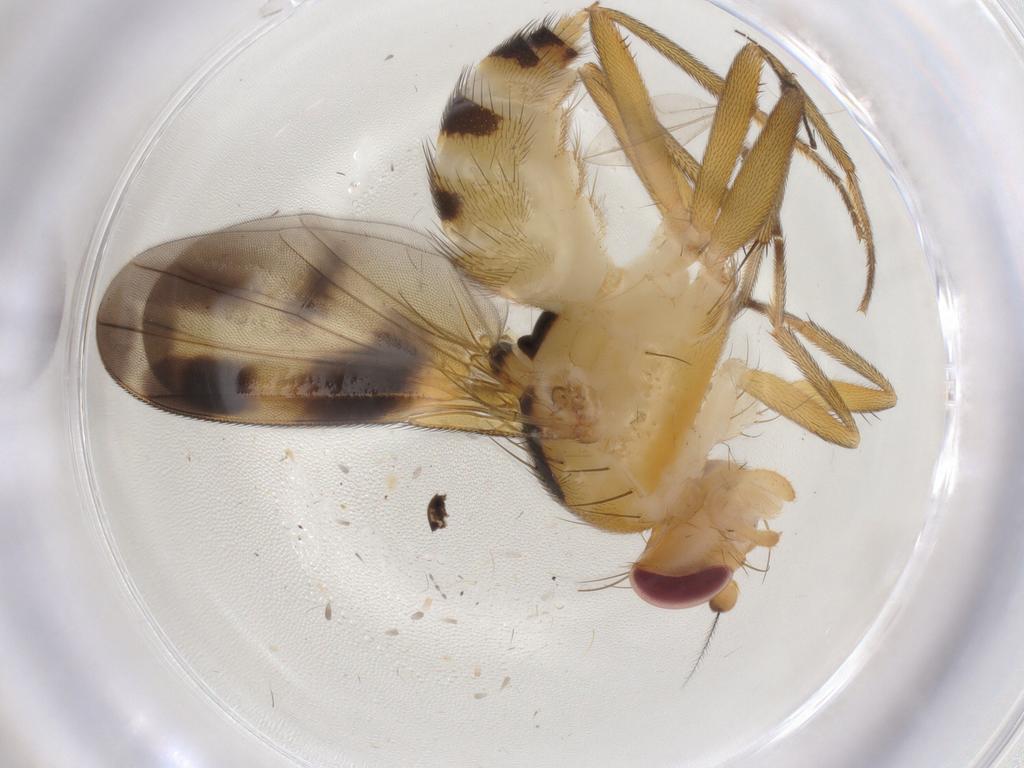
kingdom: Animalia
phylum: Arthropoda
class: Insecta
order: Diptera
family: Clusiidae
